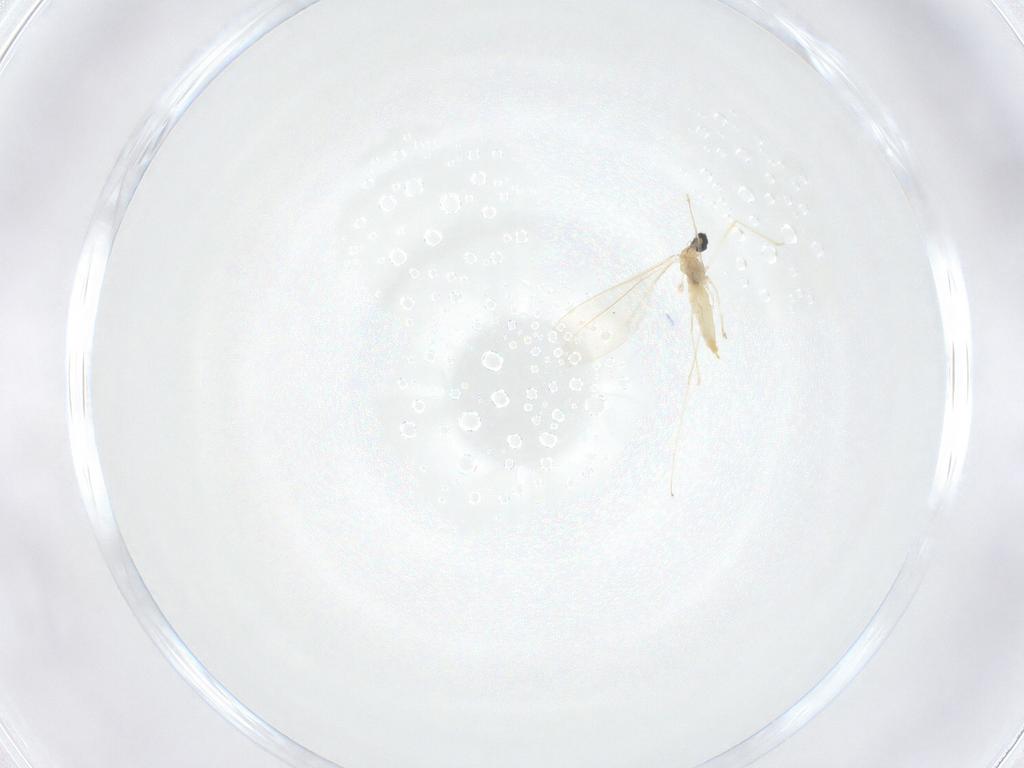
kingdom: Animalia
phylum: Arthropoda
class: Insecta
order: Diptera
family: Cecidomyiidae
